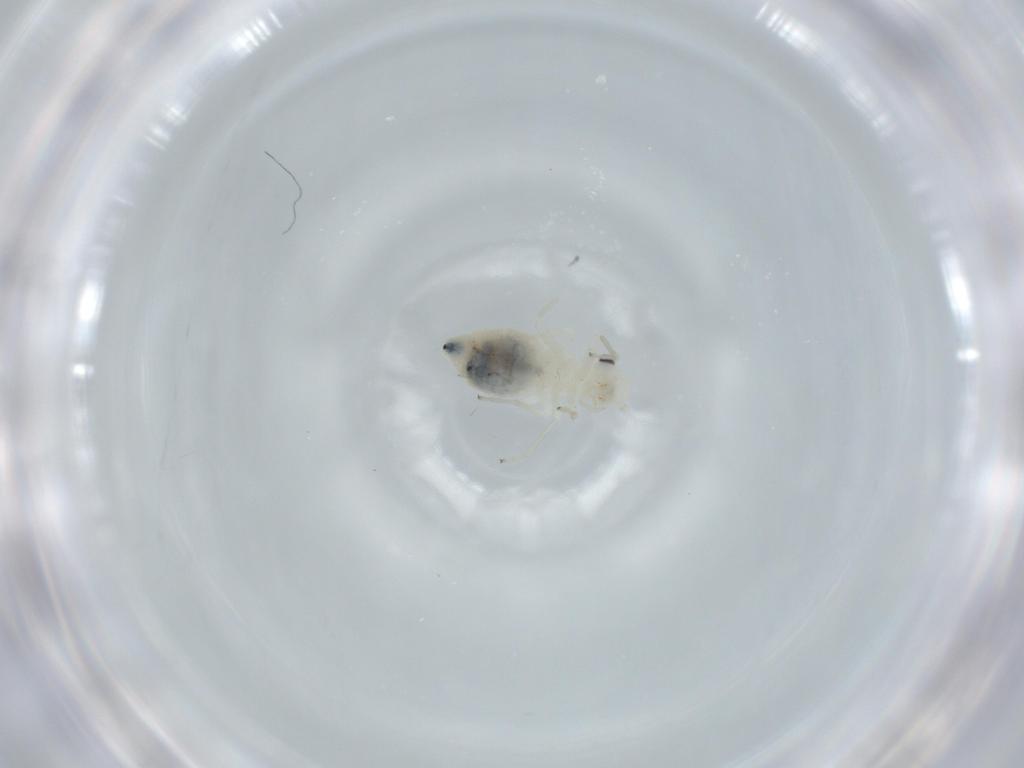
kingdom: Animalia
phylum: Arthropoda
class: Insecta
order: Psocodea
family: Caeciliusidae
